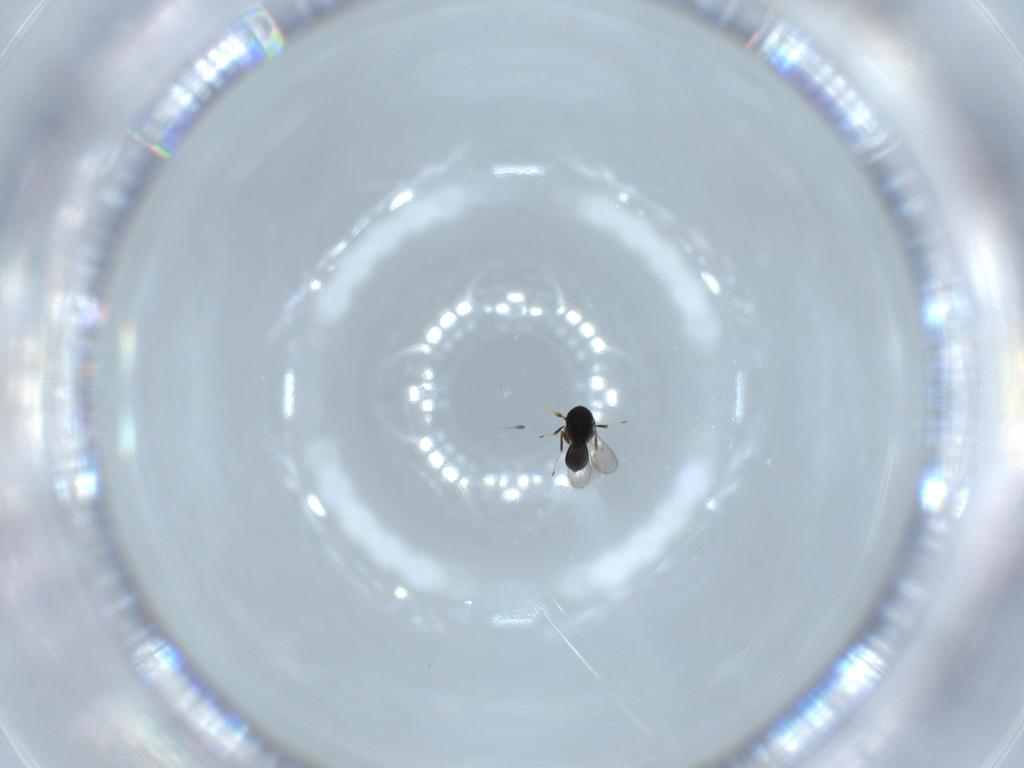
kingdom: Animalia
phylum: Arthropoda
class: Insecta
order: Hymenoptera
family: Scelionidae
